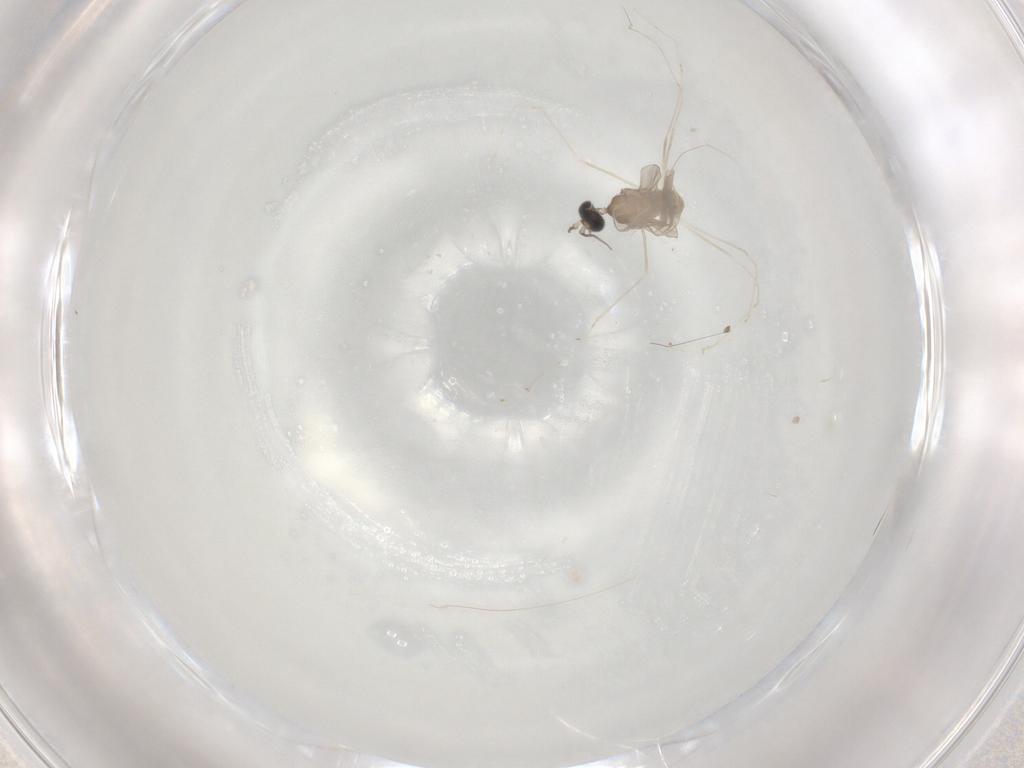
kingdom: Animalia
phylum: Arthropoda
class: Insecta
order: Diptera
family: Cecidomyiidae
